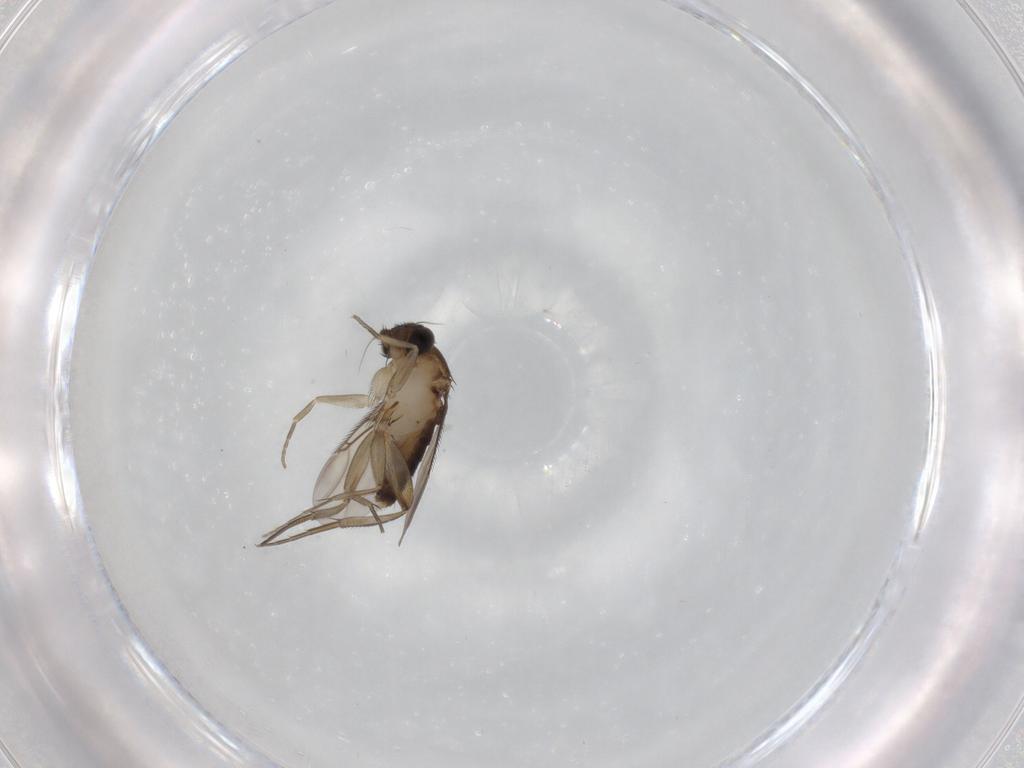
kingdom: Animalia
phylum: Arthropoda
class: Insecta
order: Diptera
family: Phoridae
